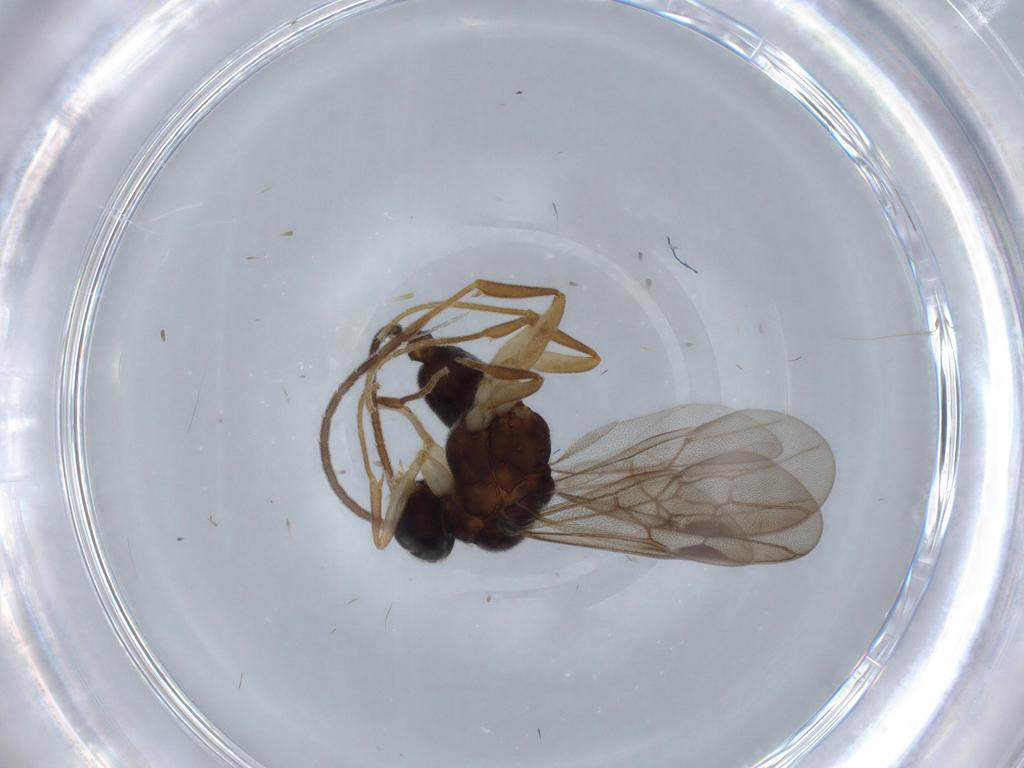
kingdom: Animalia
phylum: Arthropoda
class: Insecta
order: Hymenoptera
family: Formicidae
